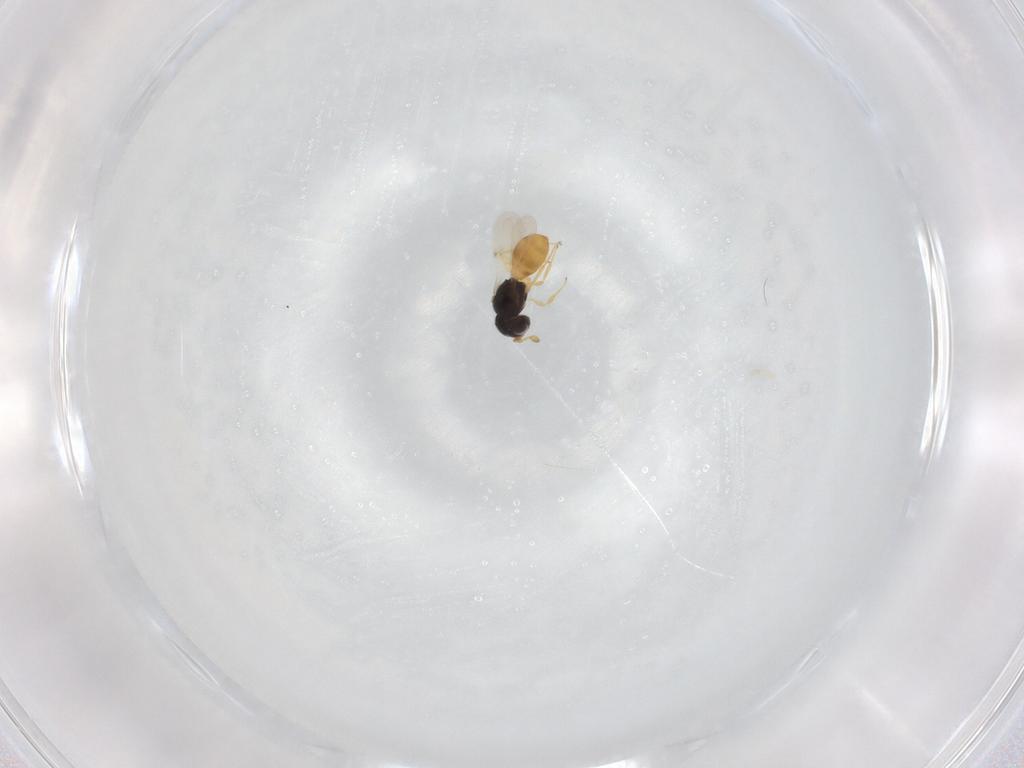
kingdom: Animalia
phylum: Arthropoda
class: Insecta
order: Hymenoptera
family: Scelionidae
